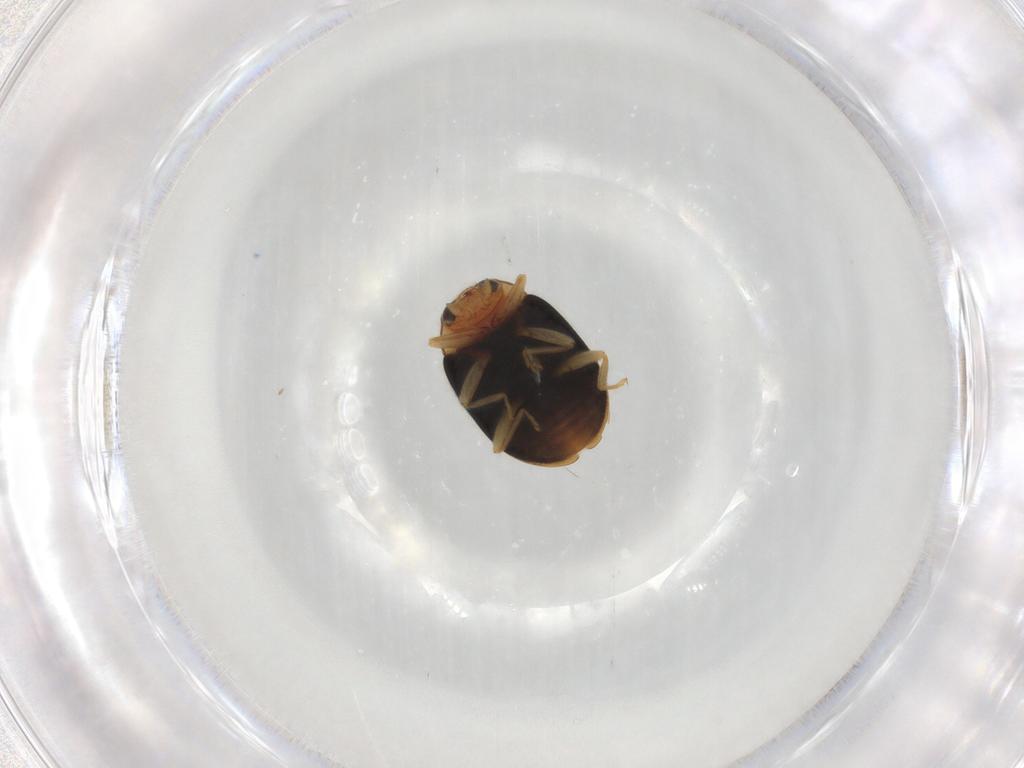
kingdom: Animalia
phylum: Arthropoda
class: Insecta
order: Coleoptera
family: Coccinellidae
